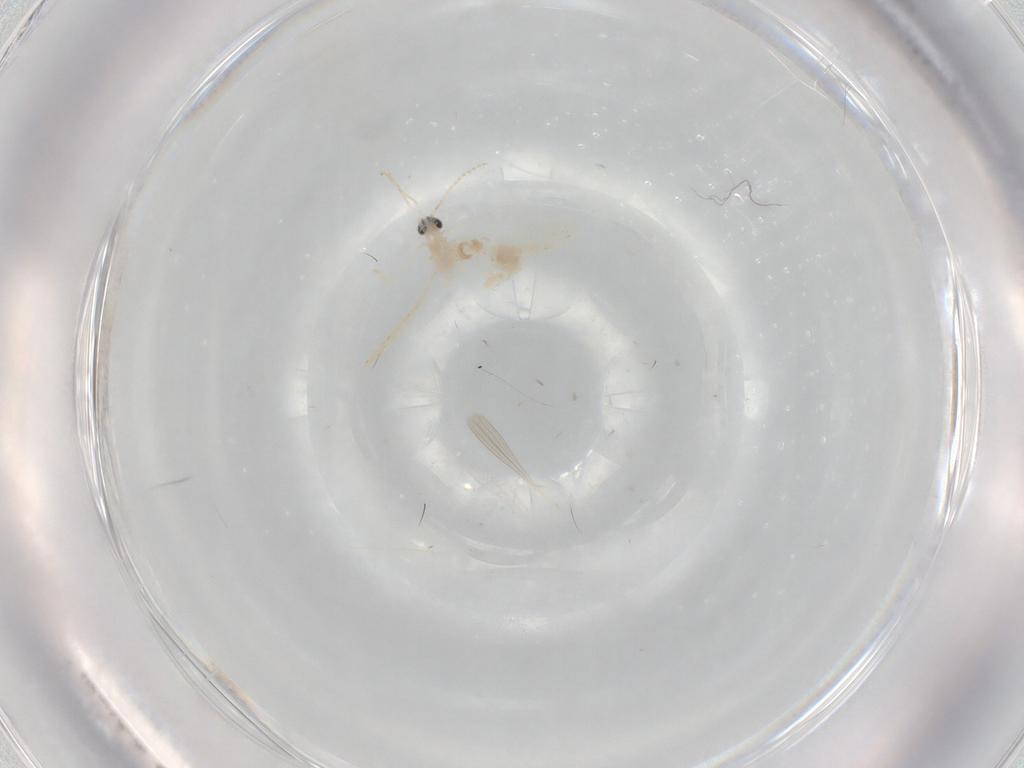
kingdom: Animalia
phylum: Arthropoda
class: Insecta
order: Diptera
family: Cecidomyiidae
